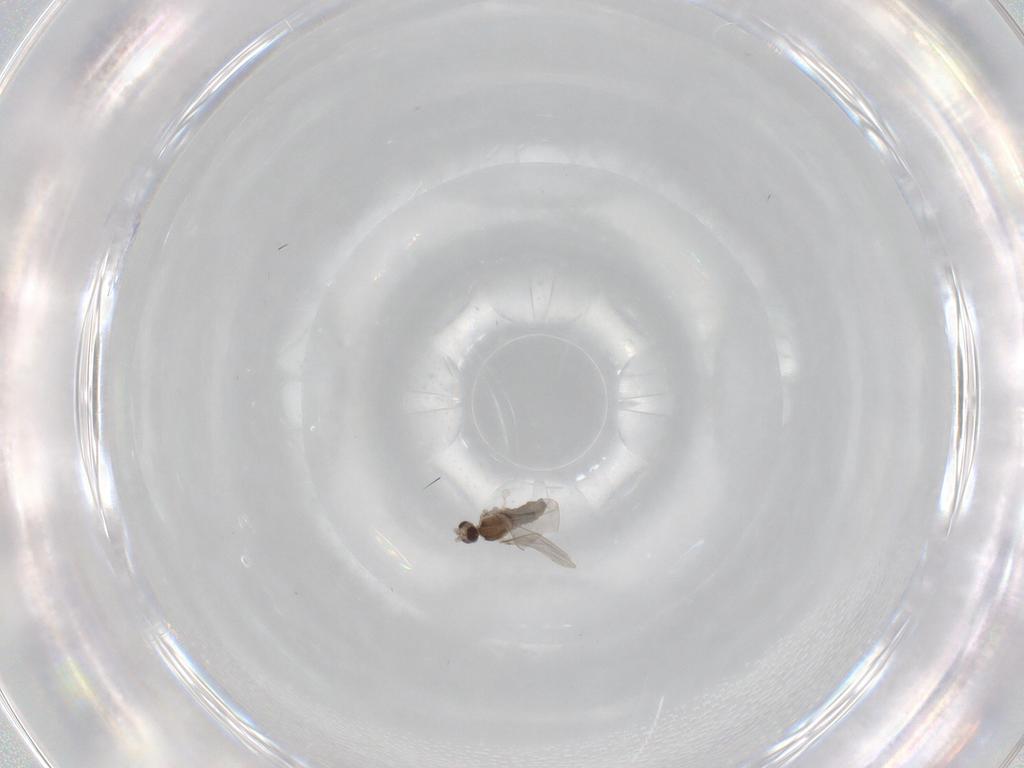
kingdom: Animalia
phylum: Arthropoda
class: Insecta
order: Diptera
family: Cecidomyiidae
